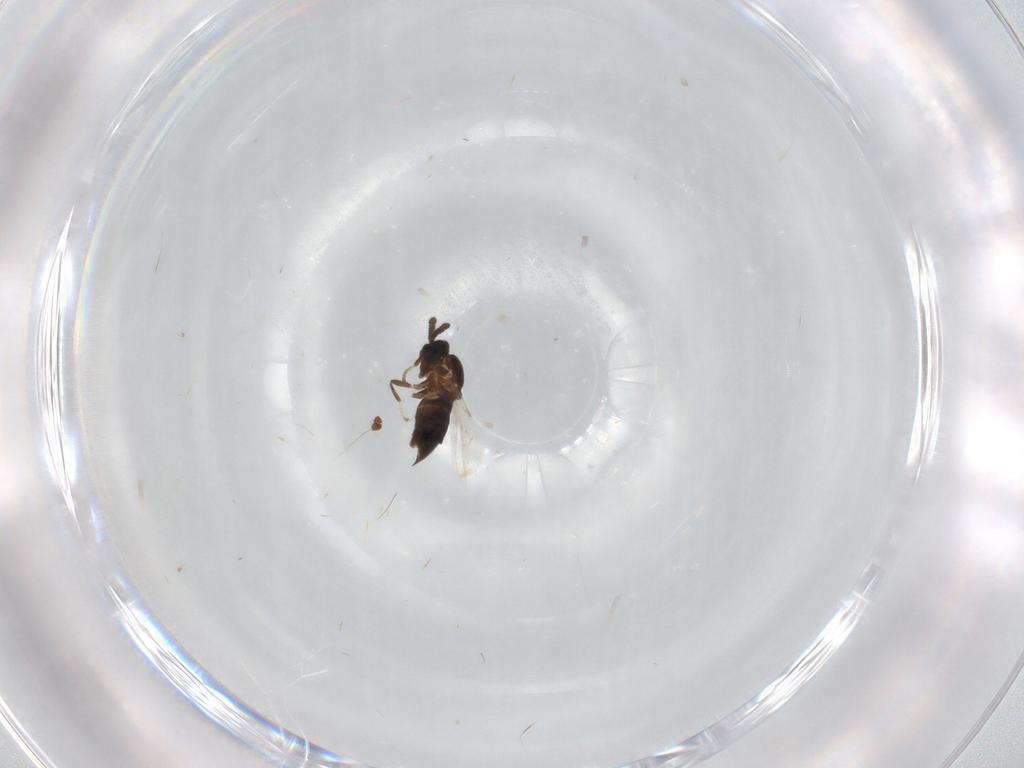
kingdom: Animalia
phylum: Arthropoda
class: Insecta
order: Diptera
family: Scatopsidae
